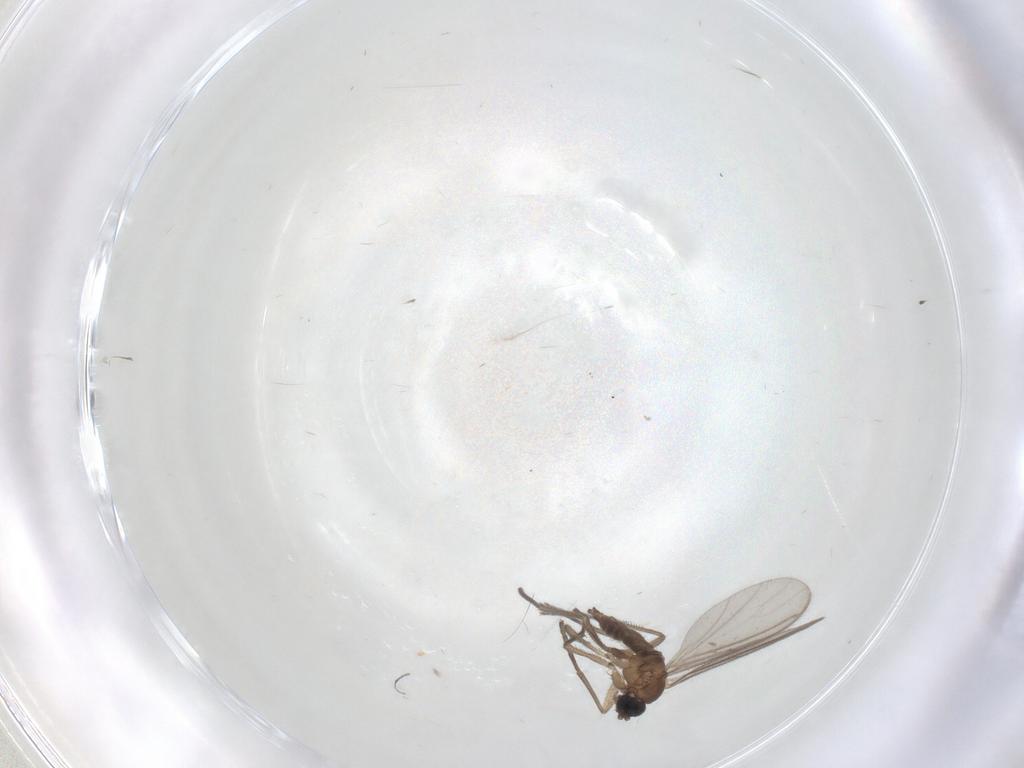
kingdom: Animalia
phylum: Arthropoda
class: Insecta
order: Diptera
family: Sciaridae
